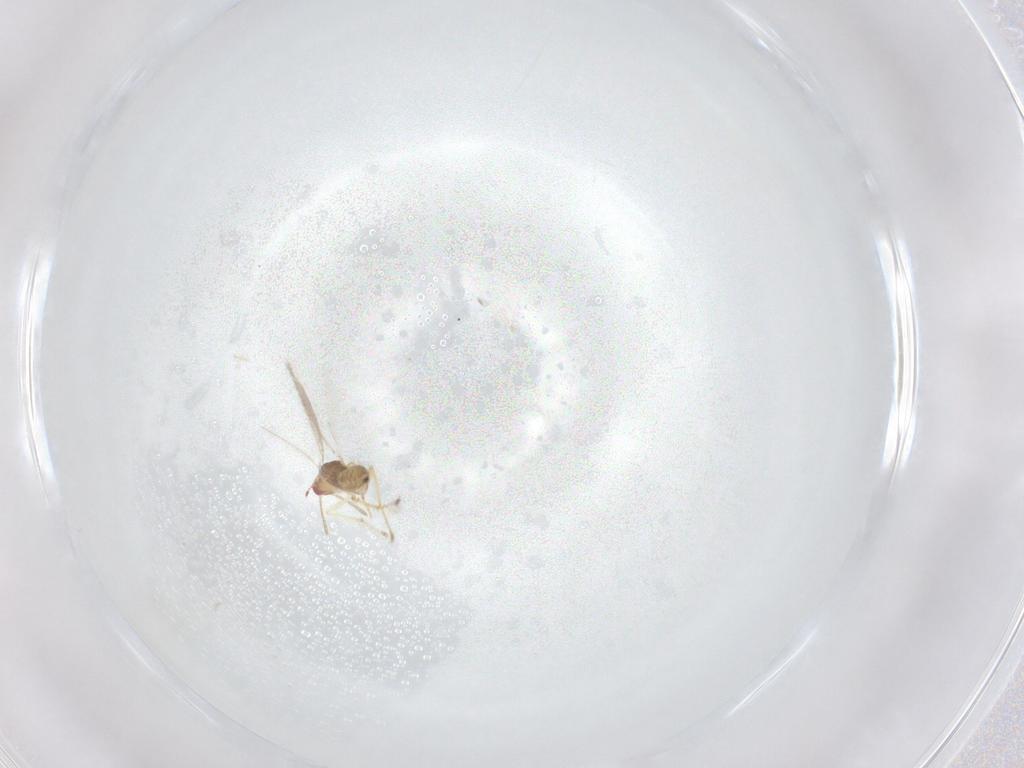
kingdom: Animalia
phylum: Arthropoda
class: Insecta
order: Hymenoptera
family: Eulophidae
